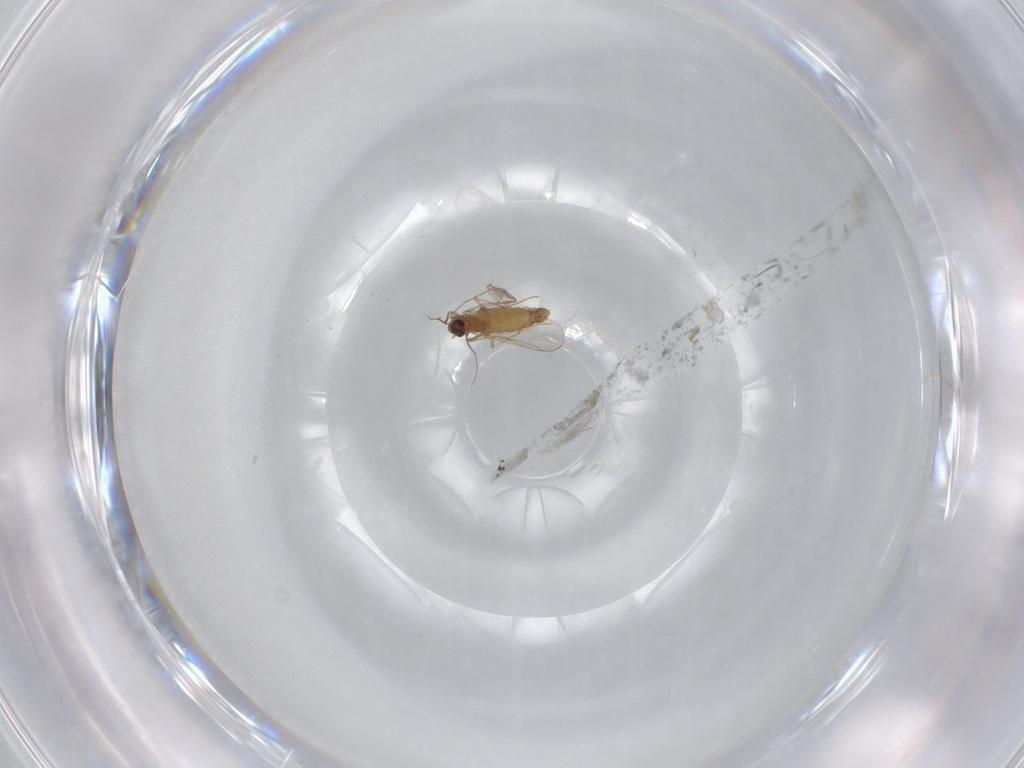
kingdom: Animalia
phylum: Arthropoda
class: Insecta
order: Diptera
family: Chironomidae
